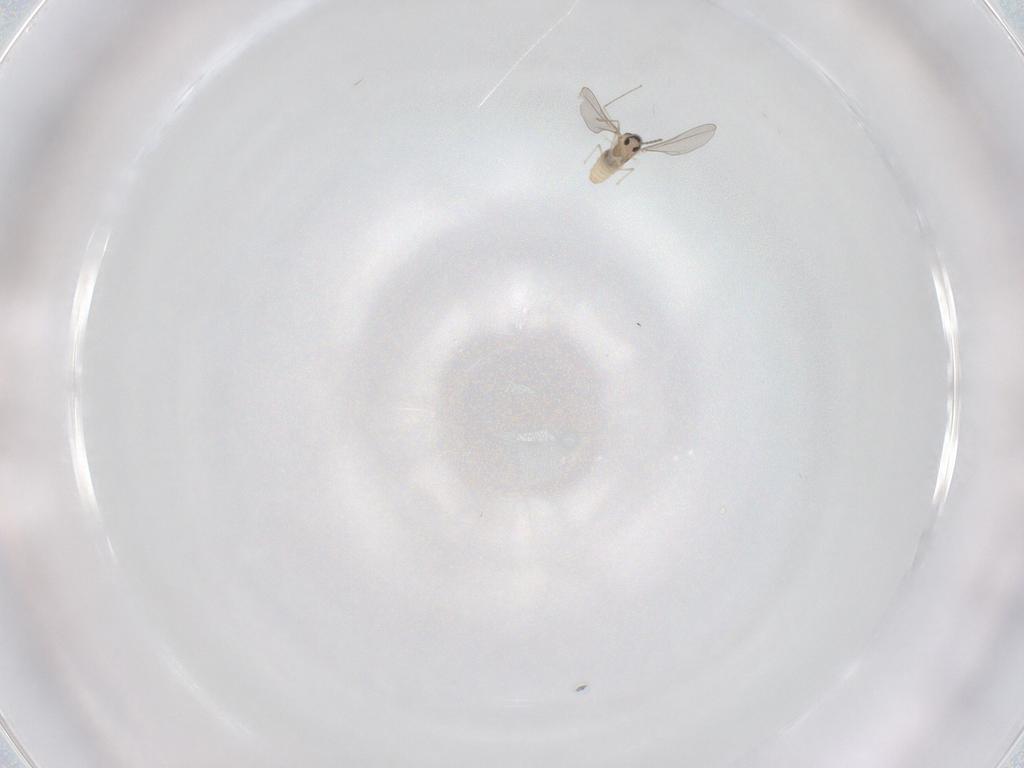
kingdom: Animalia
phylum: Arthropoda
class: Insecta
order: Diptera
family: Cecidomyiidae
